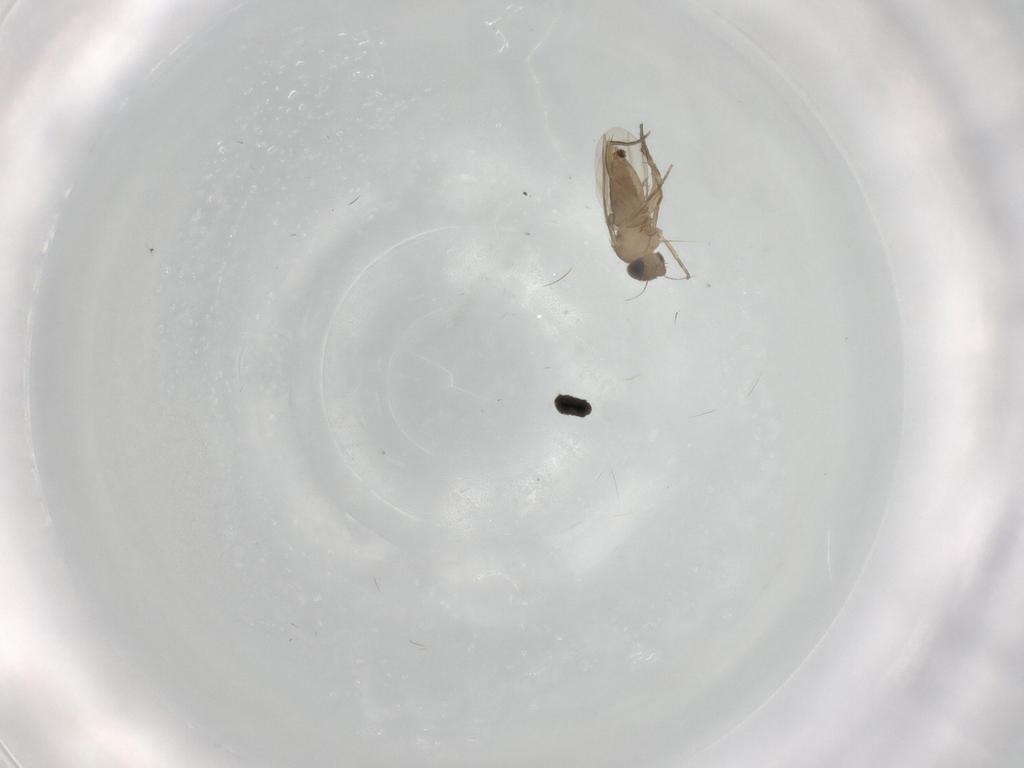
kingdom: Animalia
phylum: Arthropoda
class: Insecta
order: Diptera
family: Phoridae
